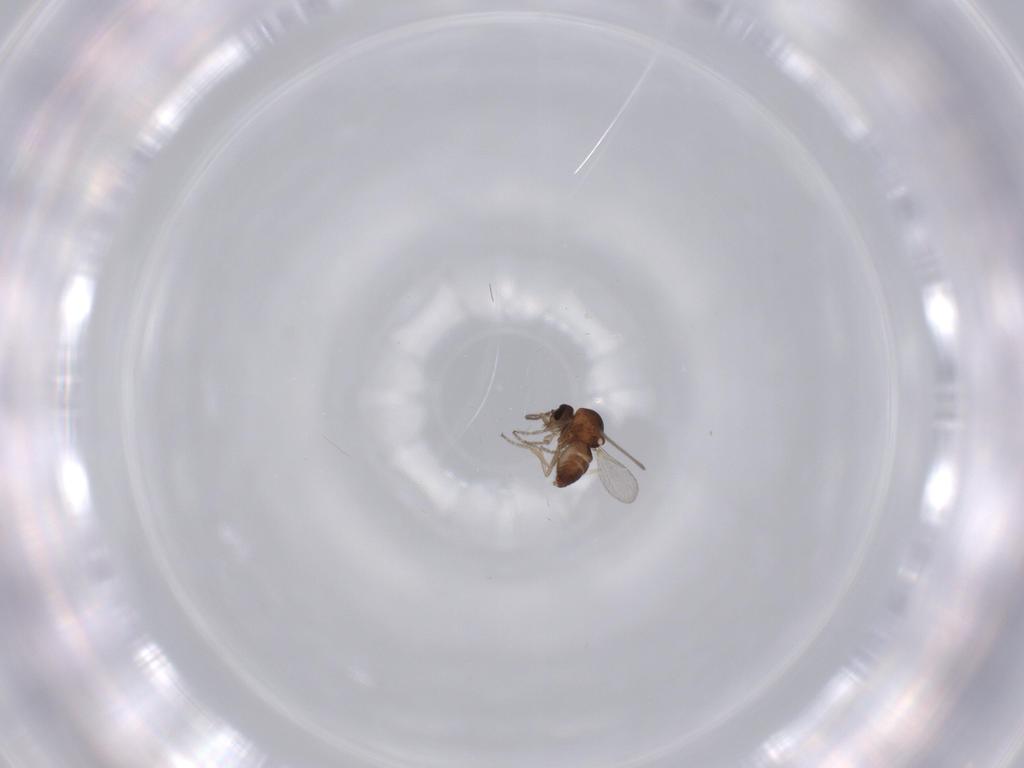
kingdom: Animalia
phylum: Arthropoda
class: Insecta
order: Diptera
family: Ceratopogonidae
